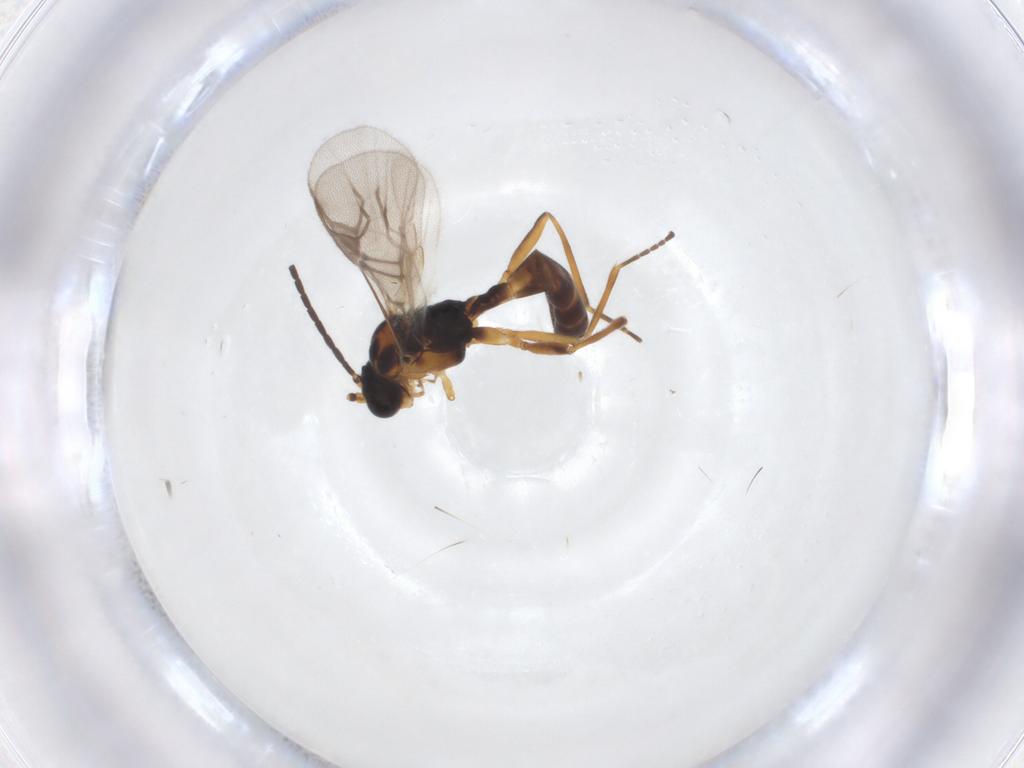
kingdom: Animalia
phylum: Arthropoda
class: Insecta
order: Hymenoptera
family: Braconidae
